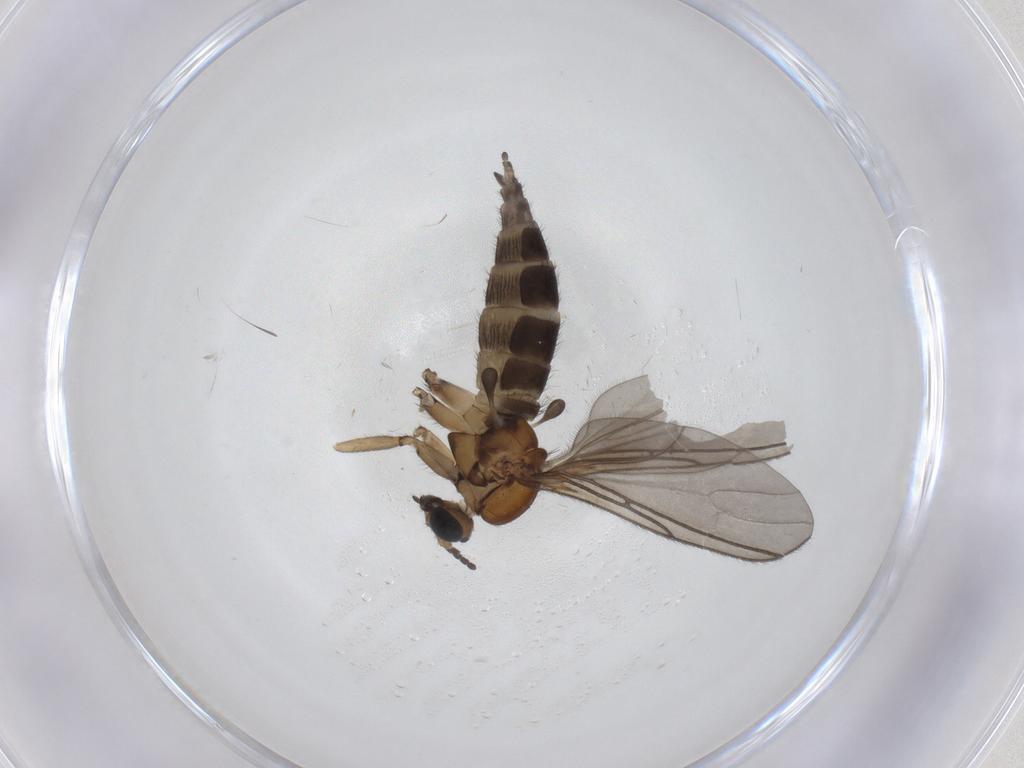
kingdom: Animalia
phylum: Arthropoda
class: Insecta
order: Diptera
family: Sciaridae
